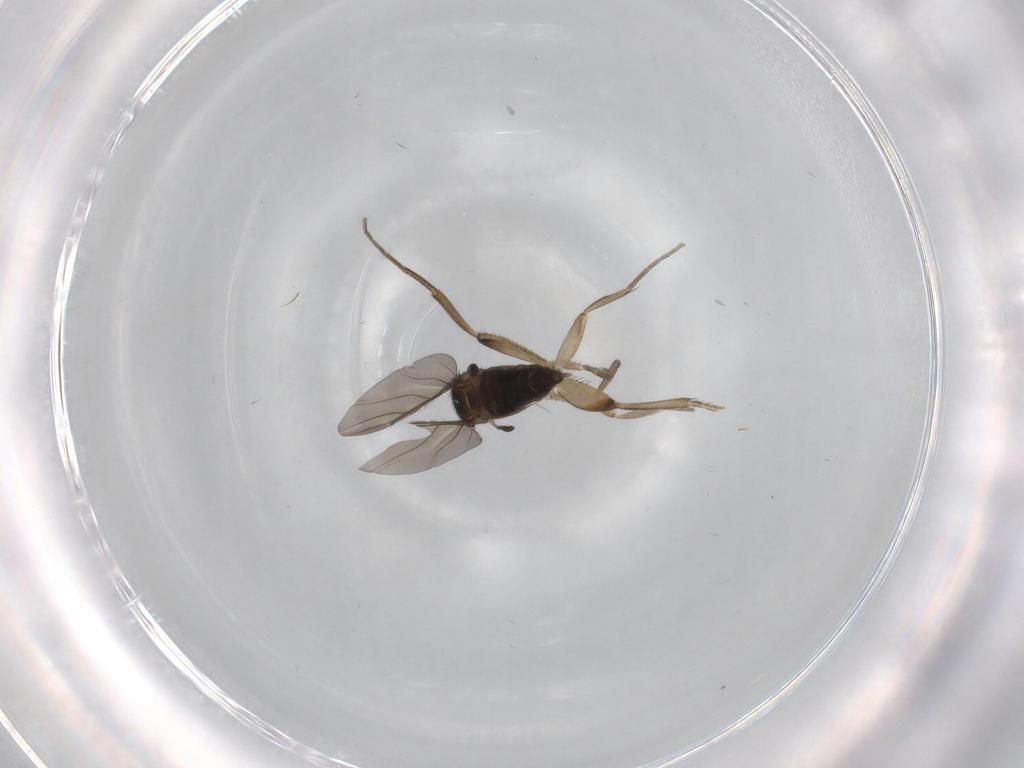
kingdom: Animalia
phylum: Arthropoda
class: Insecta
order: Diptera
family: Phoridae
